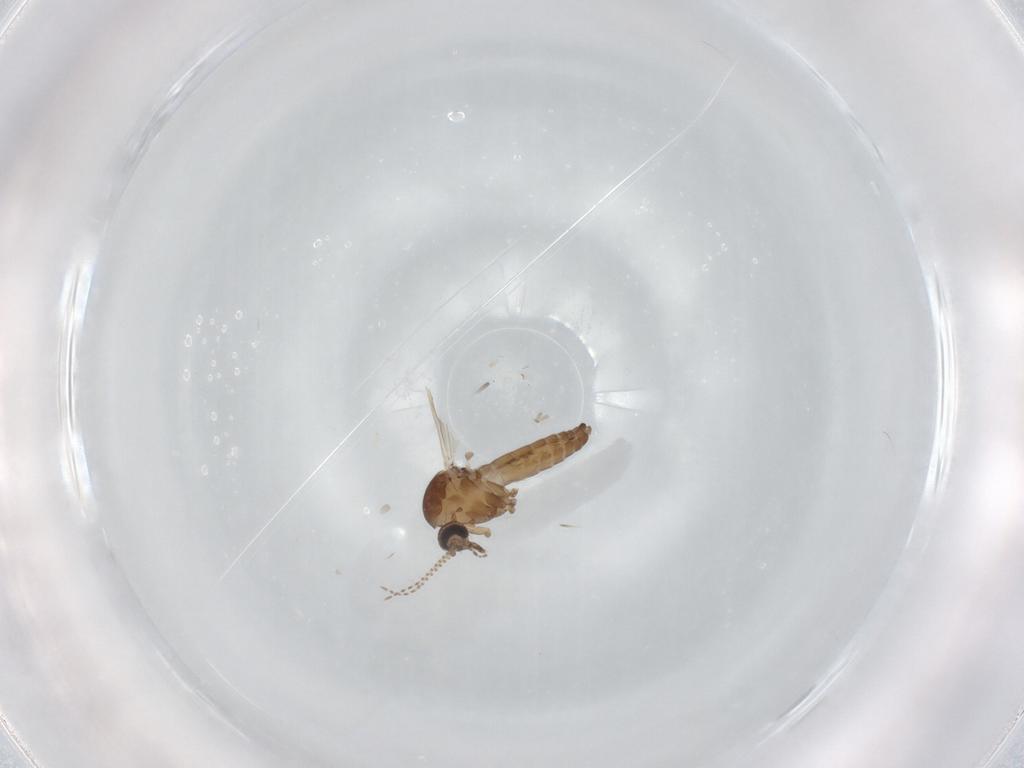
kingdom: Animalia
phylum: Arthropoda
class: Insecta
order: Diptera
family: Ceratopogonidae
